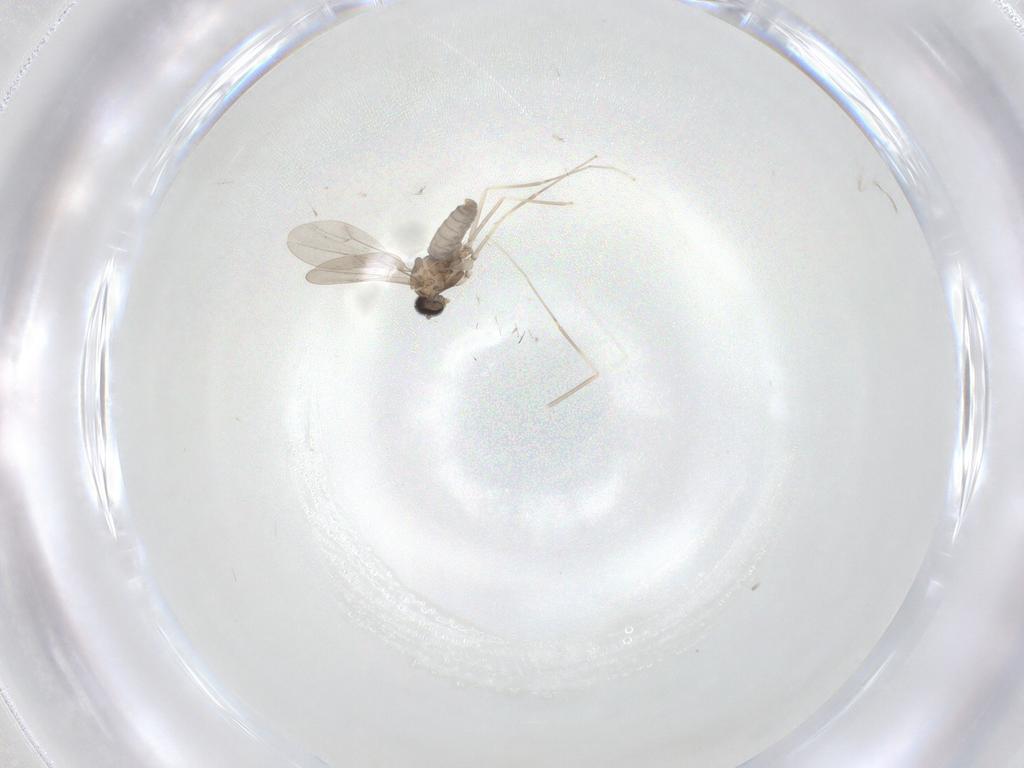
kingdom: Animalia
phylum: Arthropoda
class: Insecta
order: Diptera
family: Cecidomyiidae
